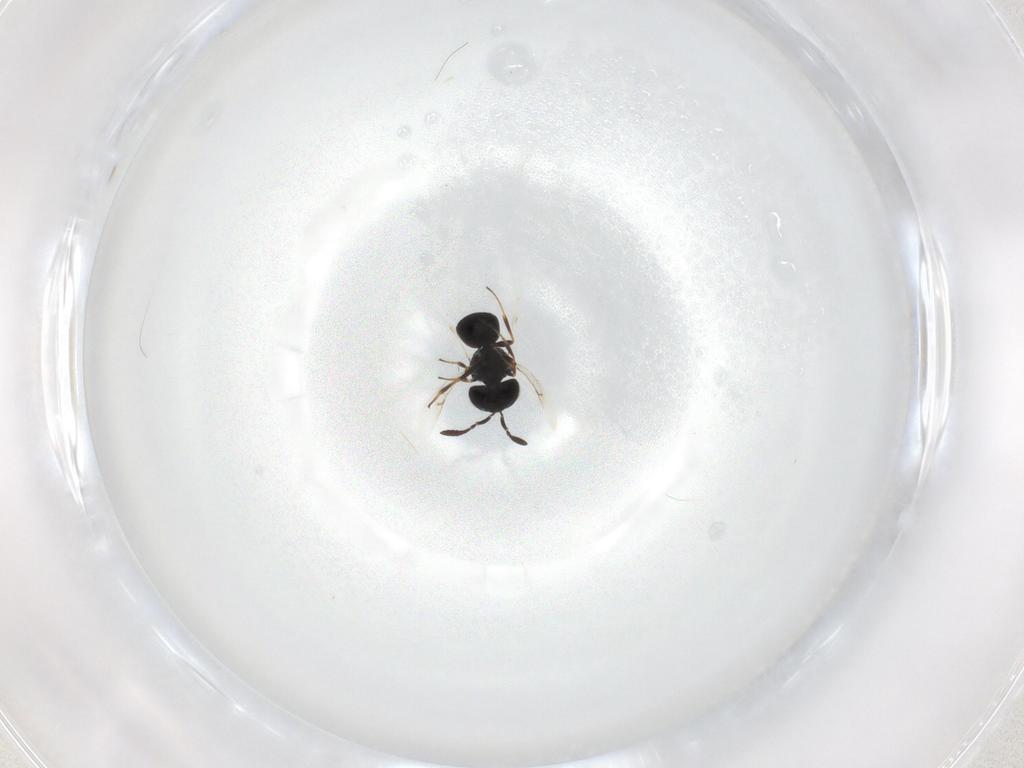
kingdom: Animalia
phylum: Arthropoda
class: Insecta
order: Hymenoptera
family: Scelionidae
